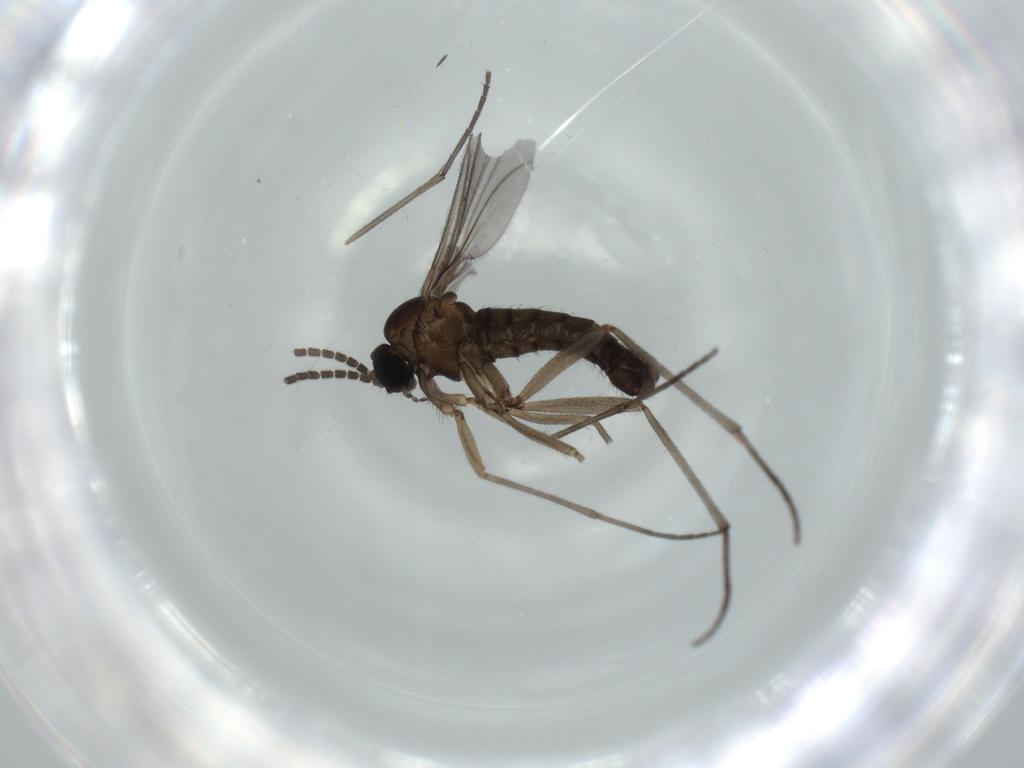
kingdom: Animalia
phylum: Arthropoda
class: Insecta
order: Diptera
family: Sciaridae
